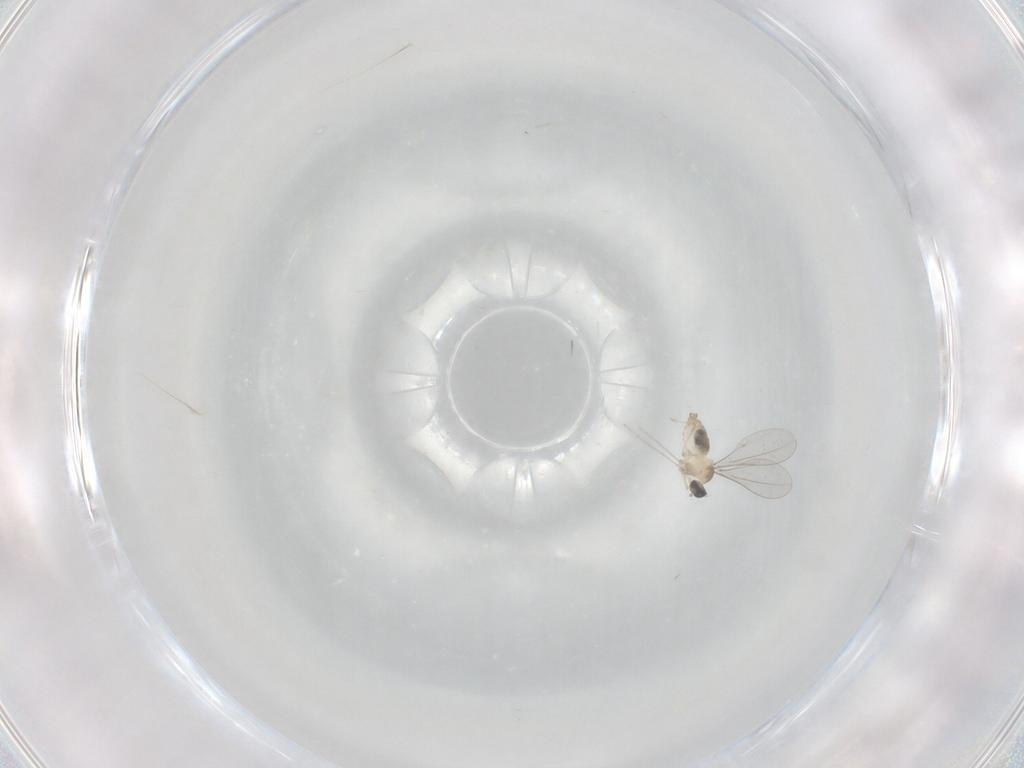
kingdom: Animalia
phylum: Arthropoda
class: Insecta
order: Diptera
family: Cecidomyiidae
